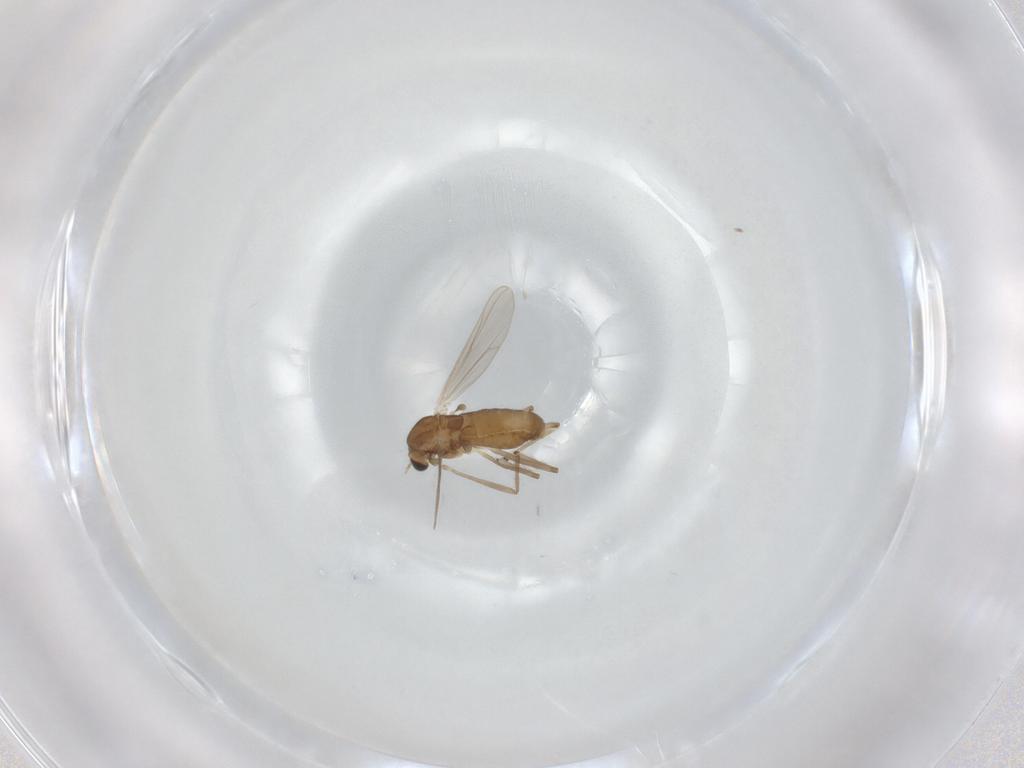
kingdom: Animalia
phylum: Arthropoda
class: Insecta
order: Diptera
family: Chironomidae
